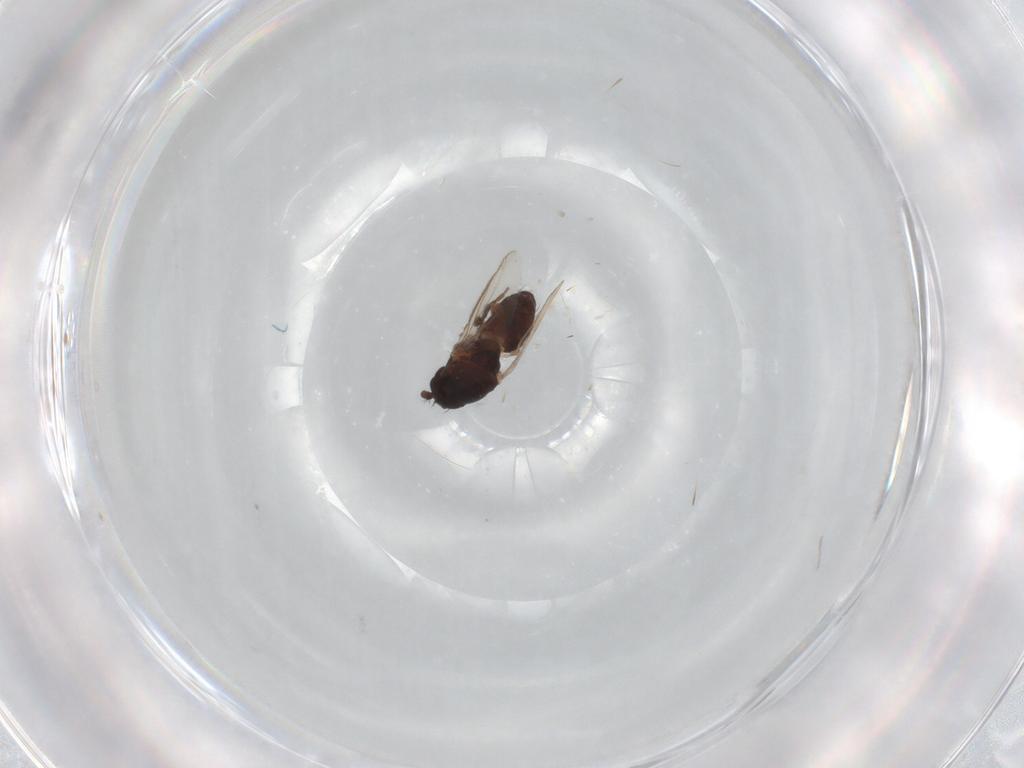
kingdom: Animalia
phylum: Arthropoda
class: Insecta
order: Diptera
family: Sphaeroceridae
